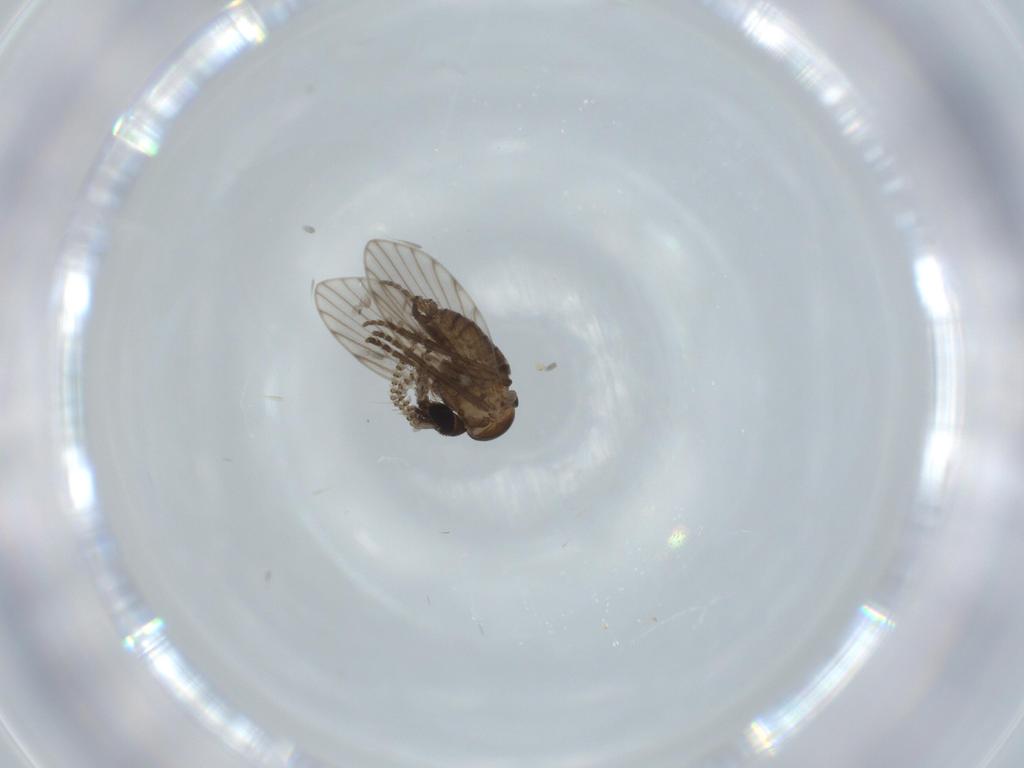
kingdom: Animalia
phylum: Arthropoda
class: Insecta
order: Diptera
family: Psychodidae
